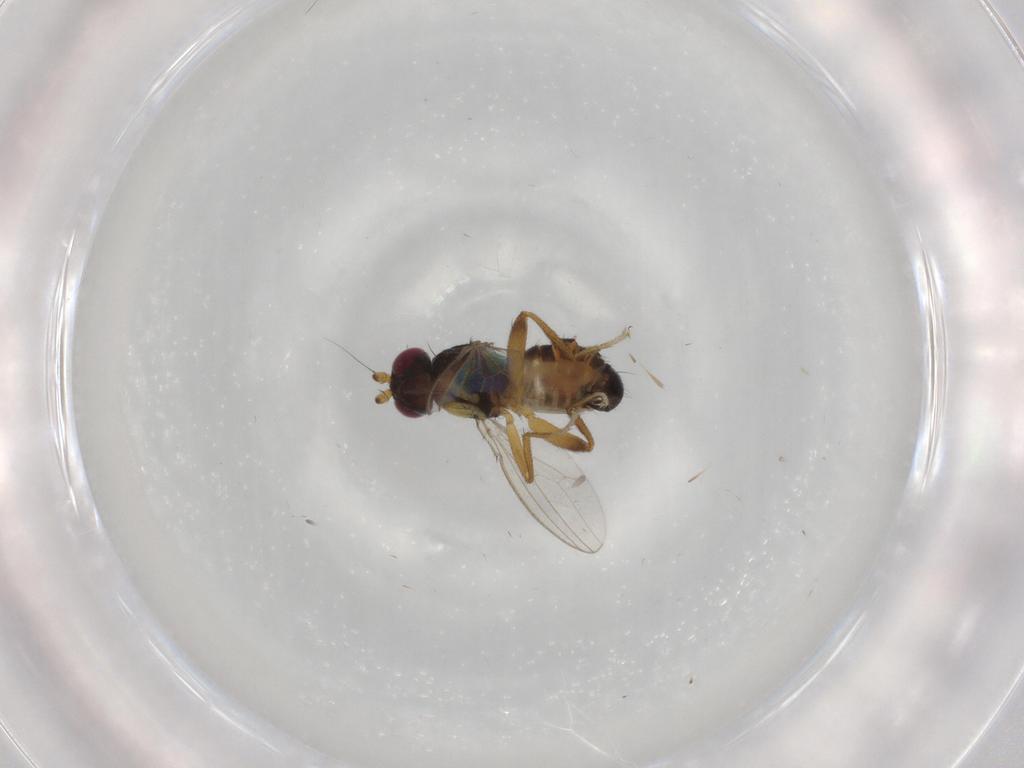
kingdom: Animalia
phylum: Arthropoda
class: Insecta
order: Diptera
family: Cypselosomatidae
